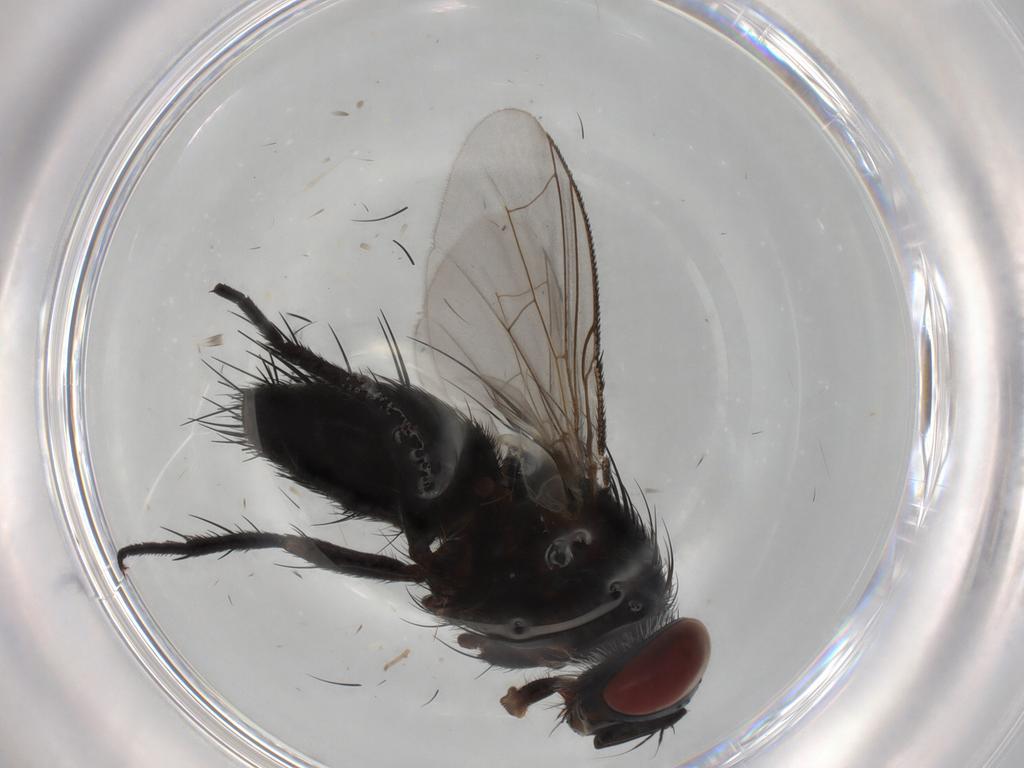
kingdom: Animalia
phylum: Arthropoda
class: Insecta
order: Diptera
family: Tachinidae
